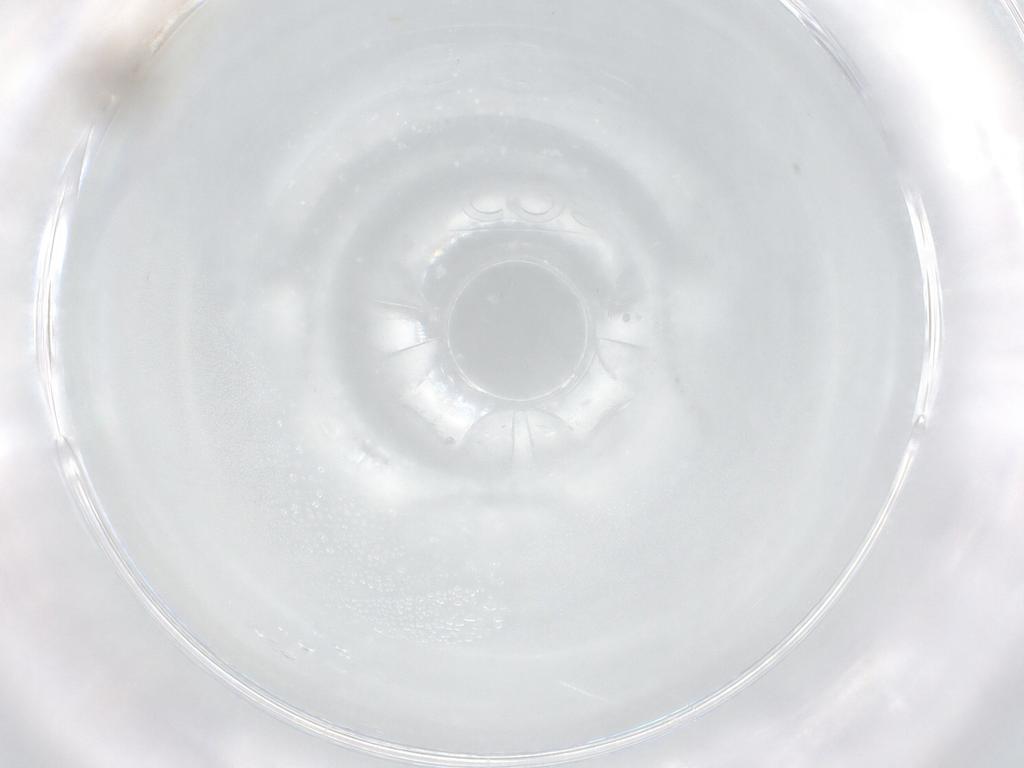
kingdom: Animalia
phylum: Arthropoda
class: Insecta
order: Diptera
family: Cecidomyiidae
